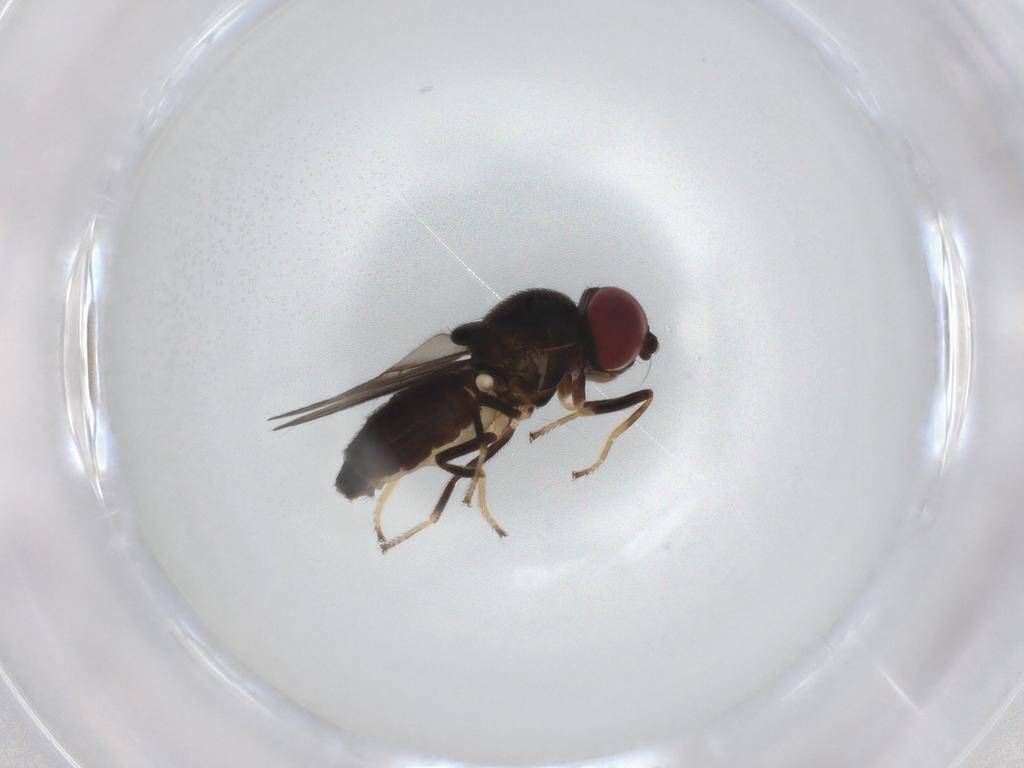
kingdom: Animalia
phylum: Arthropoda
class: Insecta
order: Diptera
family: Chloropidae
